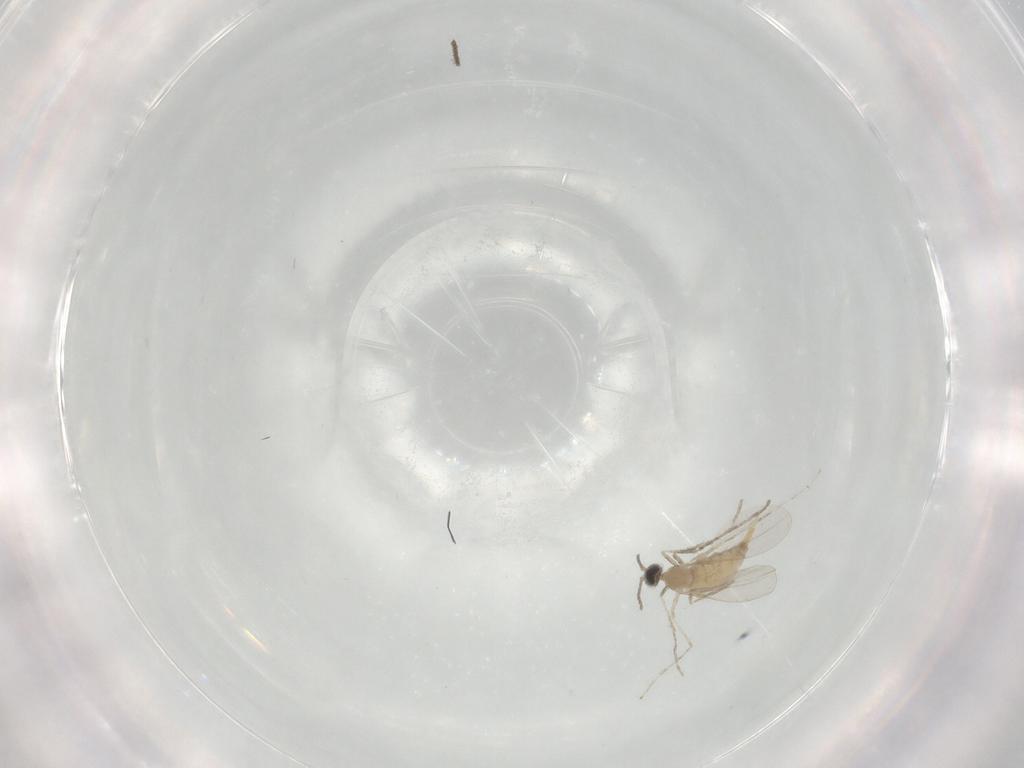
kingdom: Animalia
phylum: Arthropoda
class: Insecta
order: Diptera
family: Cecidomyiidae
